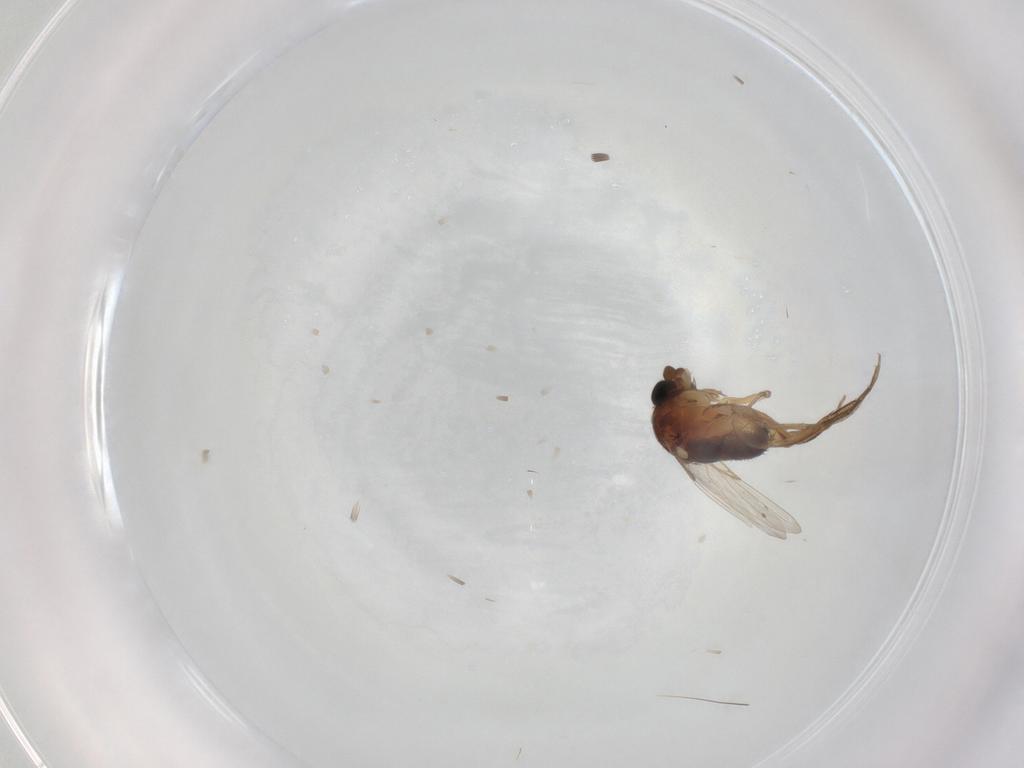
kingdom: Animalia
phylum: Arthropoda
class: Insecta
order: Diptera
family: Phoridae
